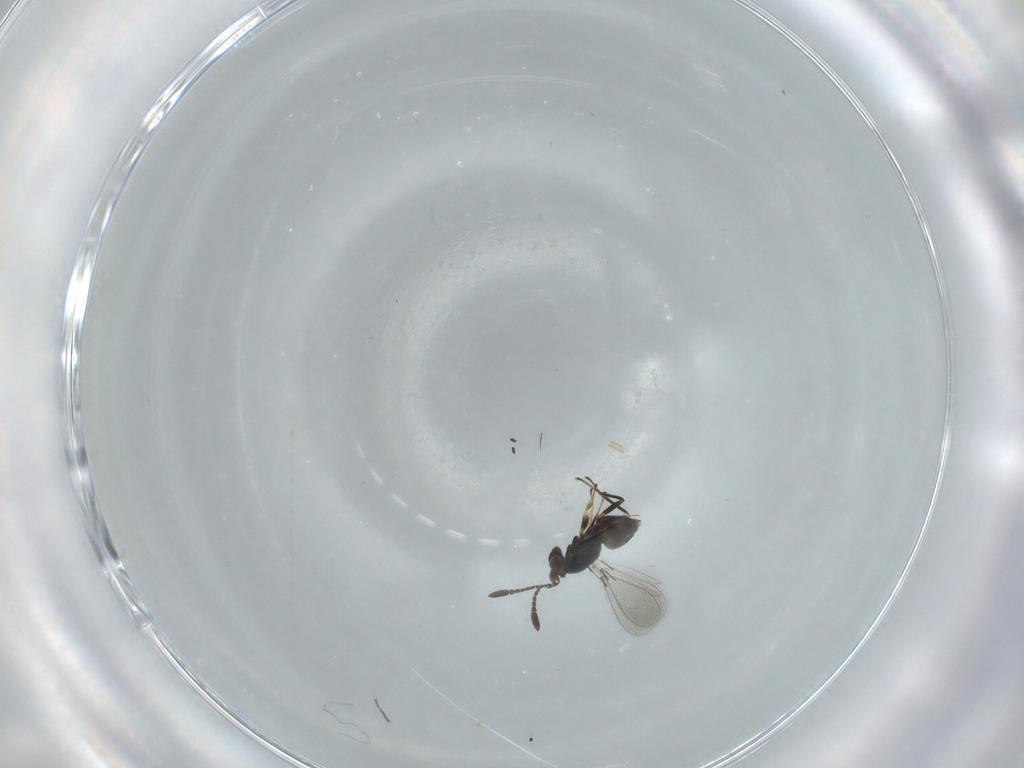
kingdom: Animalia
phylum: Arthropoda
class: Insecta
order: Hymenoptera
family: Mymaridae
